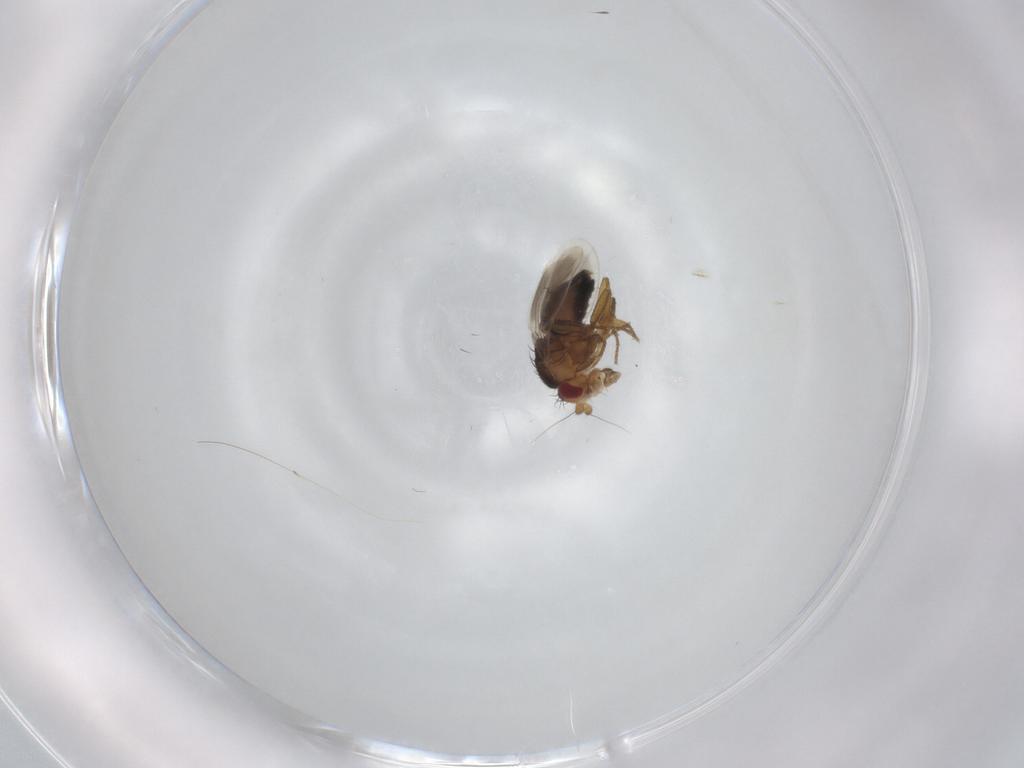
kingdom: Animalia
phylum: Arthropoda
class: Insecta
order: Diptera
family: Sphaeroceridae
